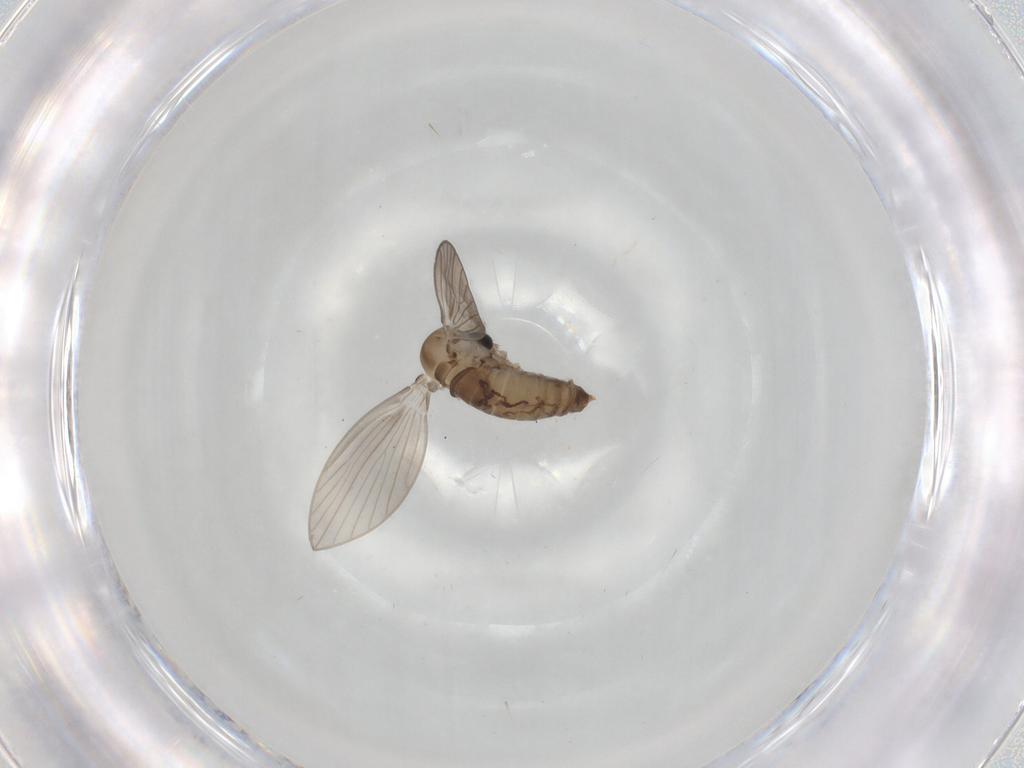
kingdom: Animalia
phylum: Arthropoda
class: Insecta
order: Diptera
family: Psychodidae
